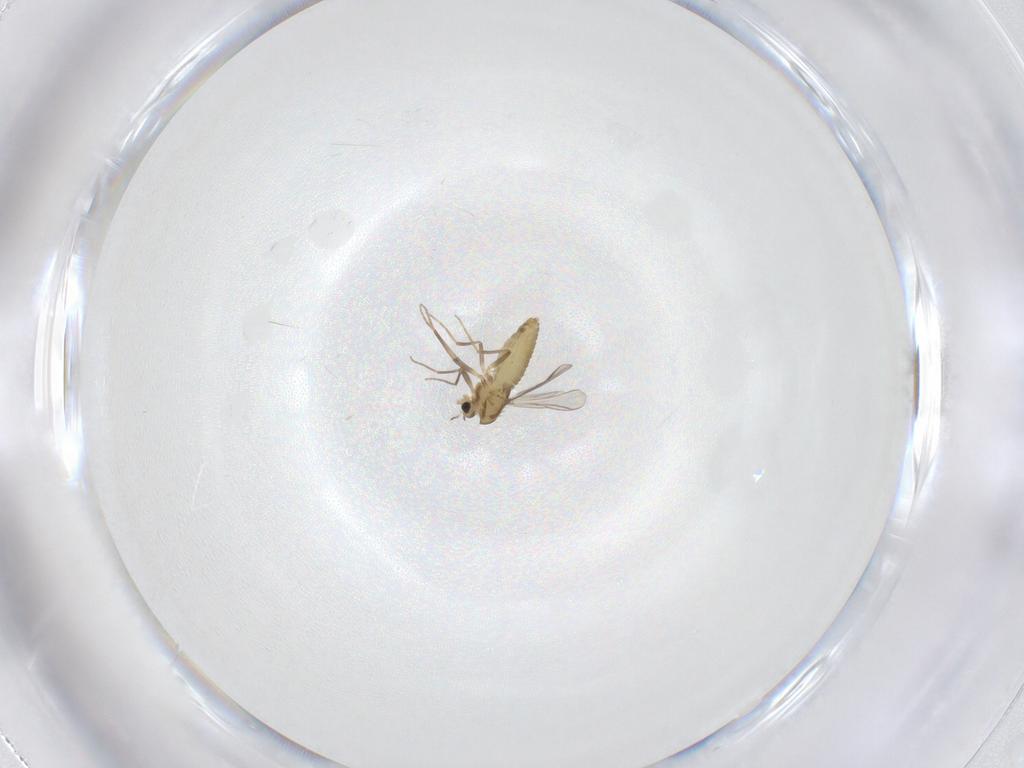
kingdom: Animalia
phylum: Arthropoda
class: Insecta
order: Diptera
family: Chironomidae
